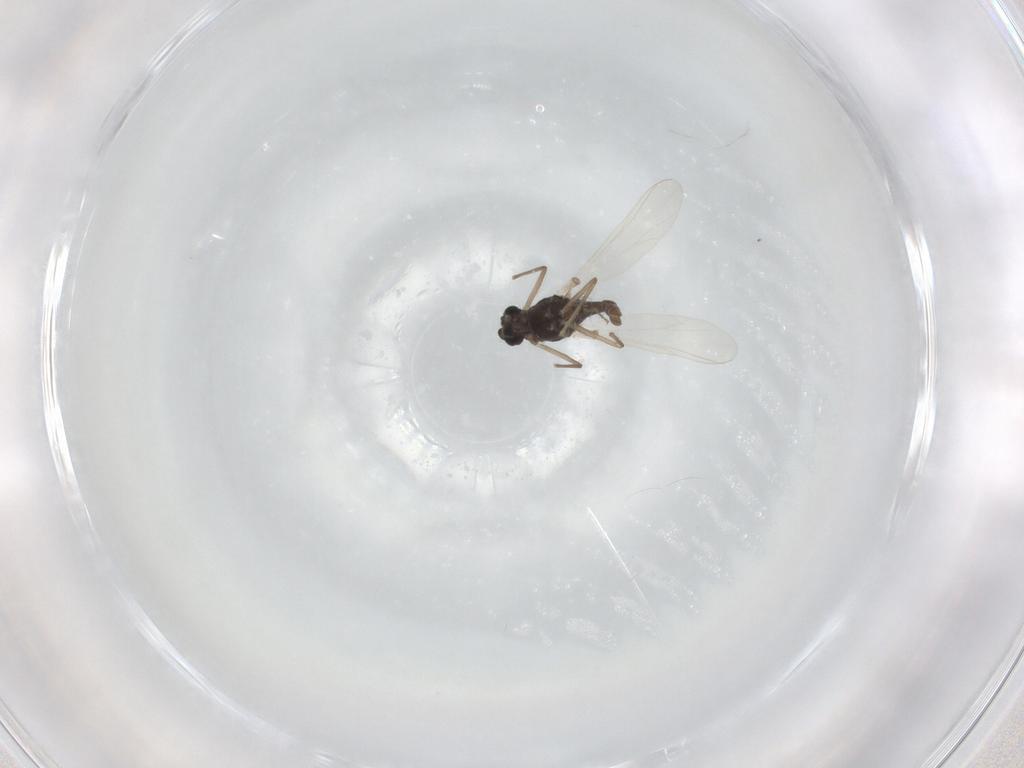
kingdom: Animalia
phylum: Arthropoda
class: Insecta
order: Diptera
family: Chironomidae
